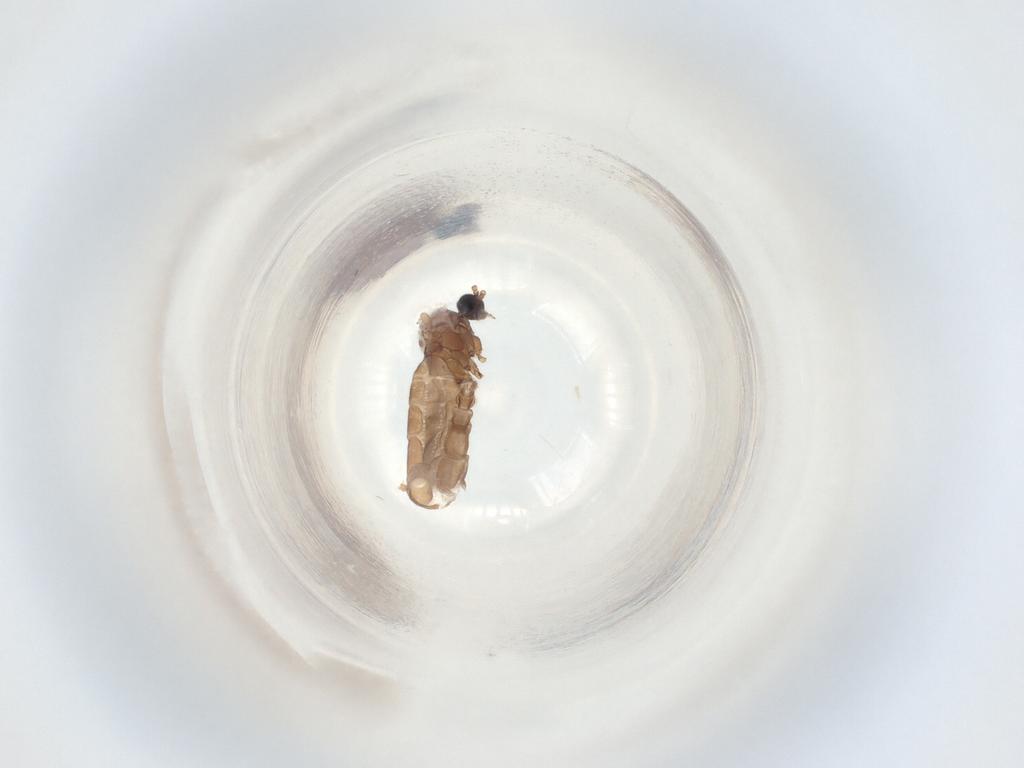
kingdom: Animalia
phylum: Arthropoda
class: Insecta
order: Diptera
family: Sciaridae
